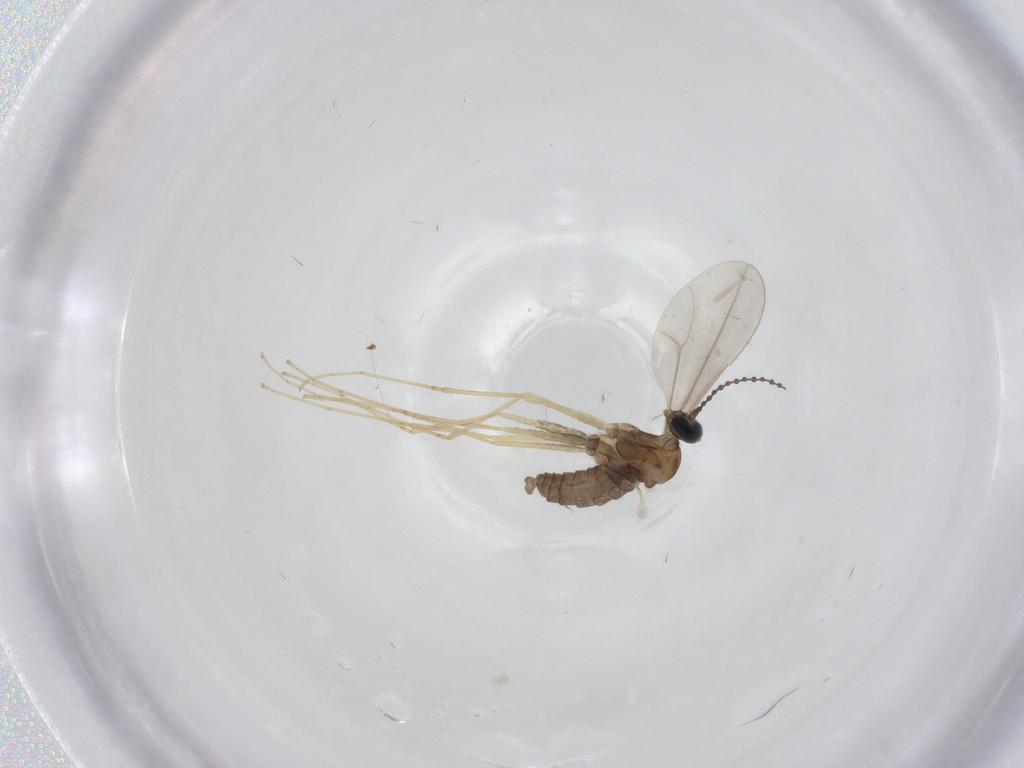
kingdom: Animalia
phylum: Arthropoda
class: Insecta
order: Diptera
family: Cecidomyiidae
